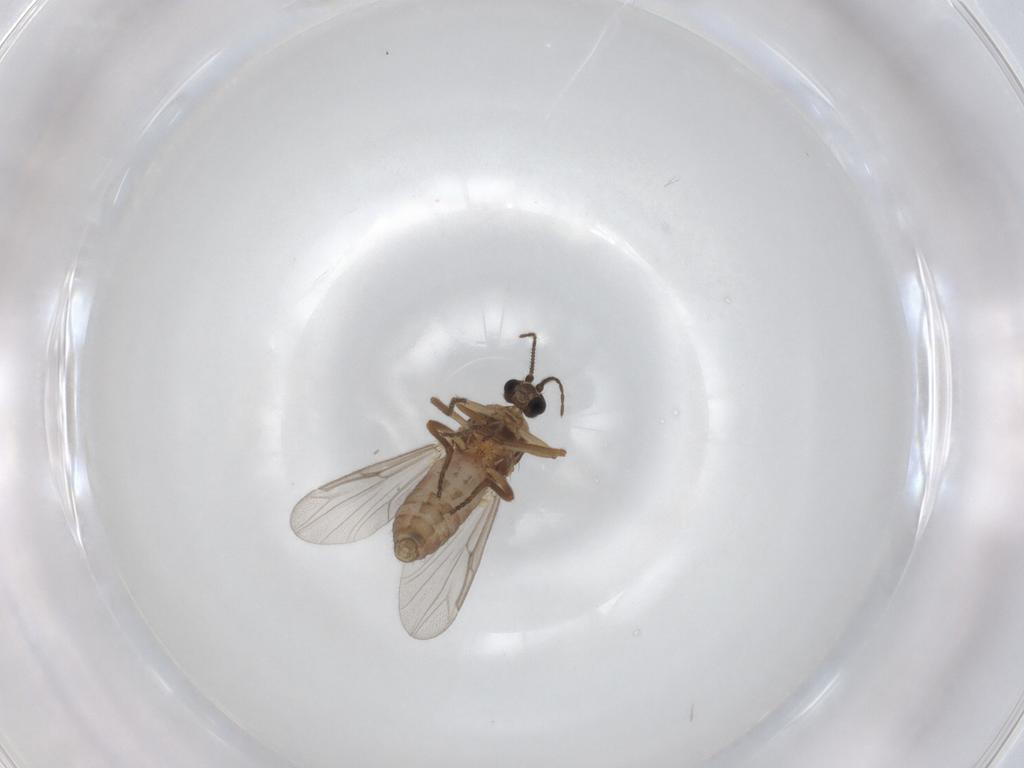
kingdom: Animalia
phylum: Arthropoda
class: Insecta
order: Diptera
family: Ceratopogonidae
